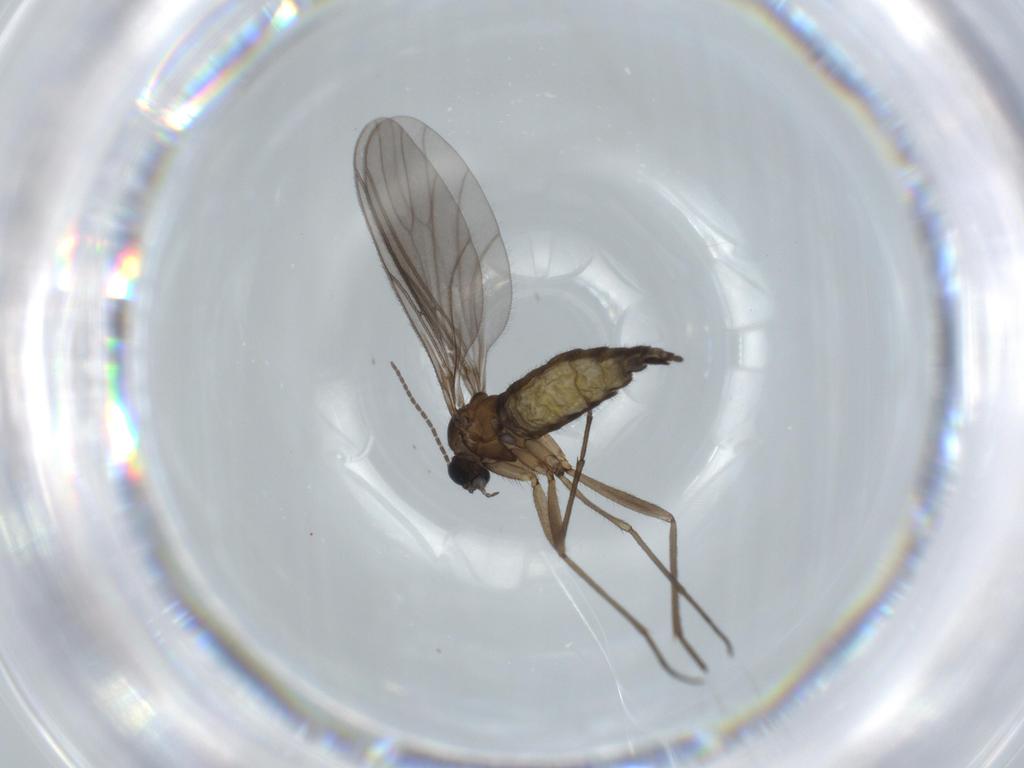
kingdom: Animalia
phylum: Arthropoda
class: Insecta
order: Diptera
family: Sciaridae
